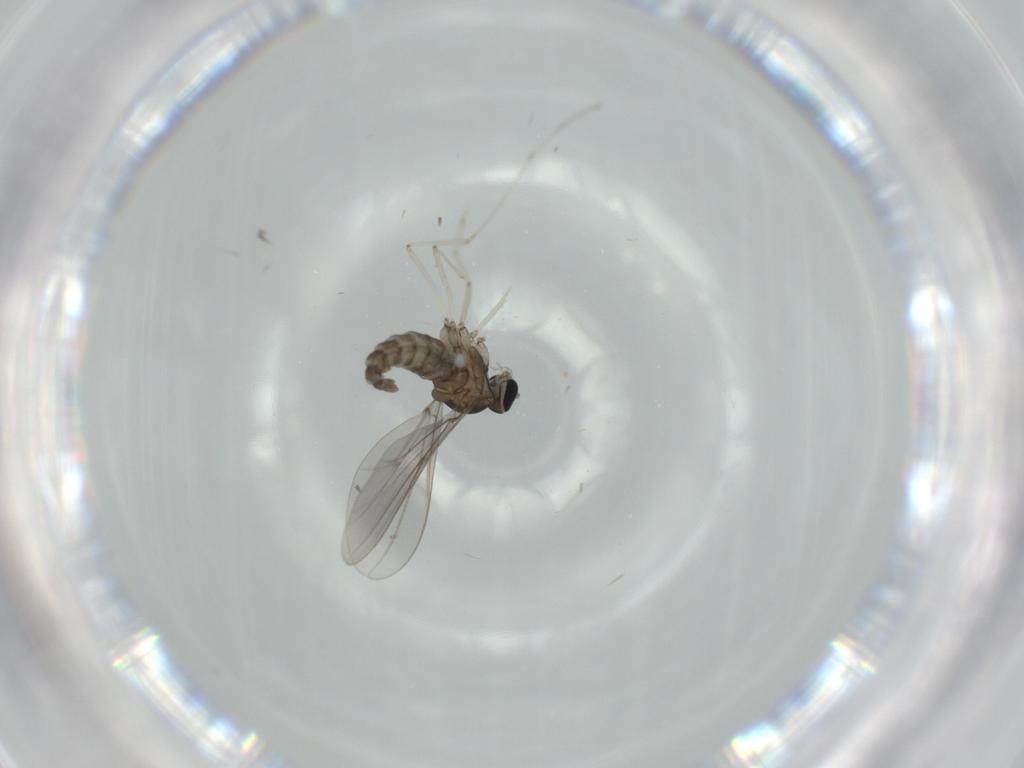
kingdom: Animalia
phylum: Arthropoda
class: Insecta
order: Diptera
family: Cecidomyiidae
